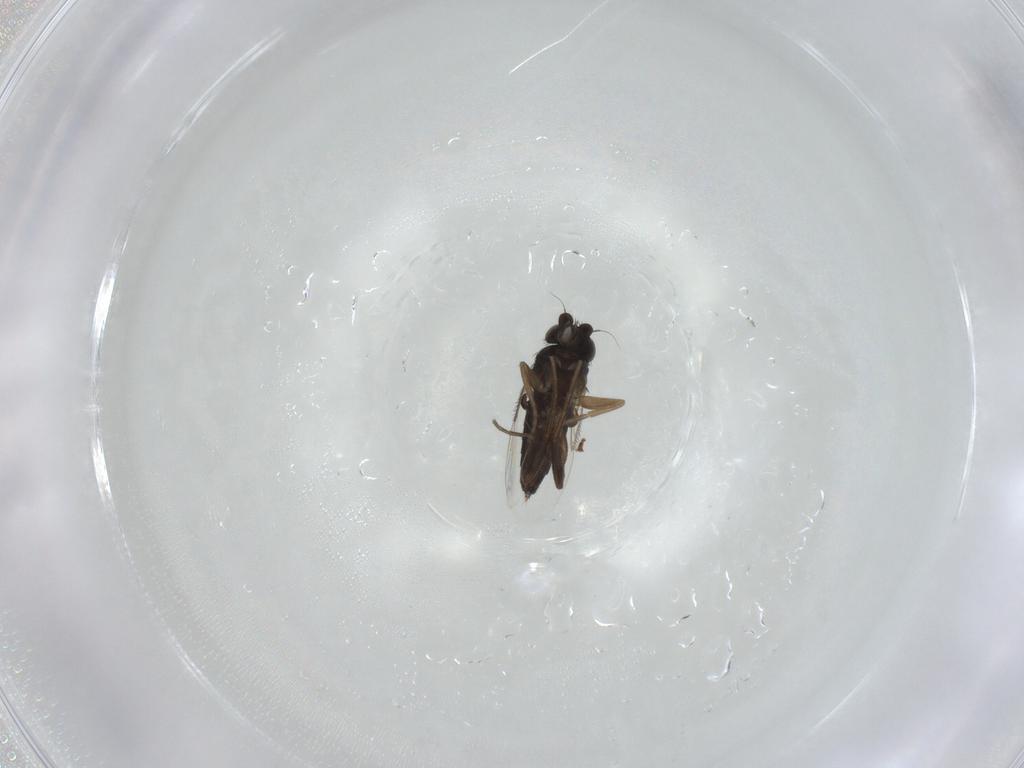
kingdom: Animalia
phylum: Arthropoda
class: Insecta
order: Diptera
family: Phoridae
